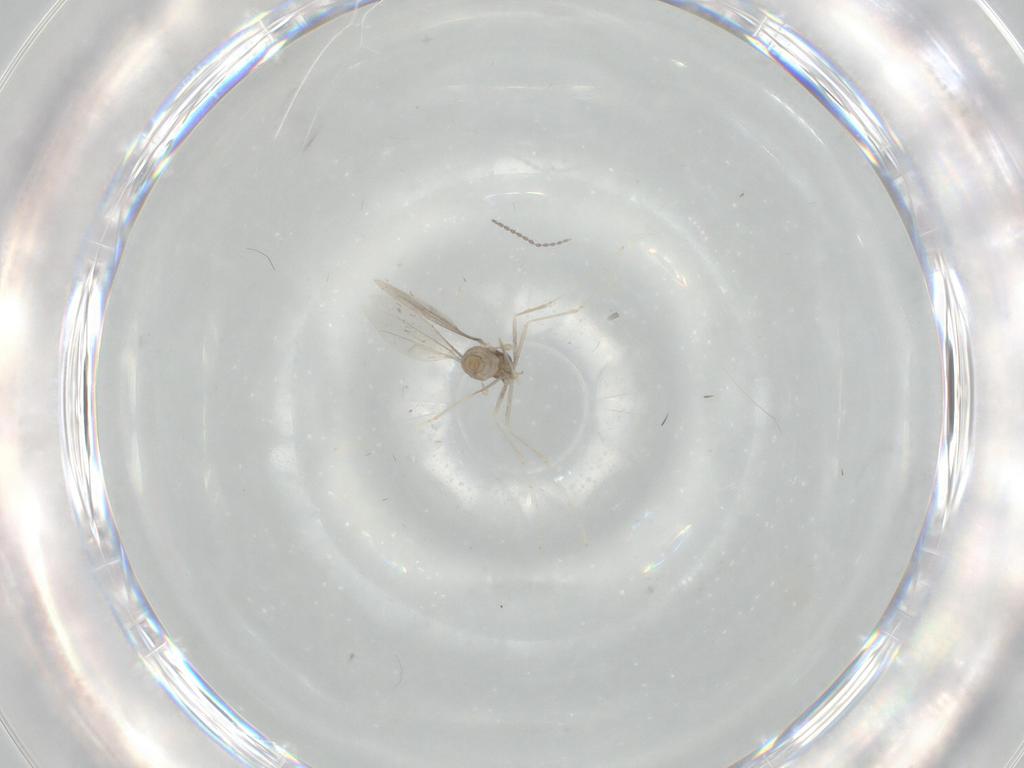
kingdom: Animalia
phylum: Arthropoda
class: Insecta
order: Diptera
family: Cecidomyiidae
